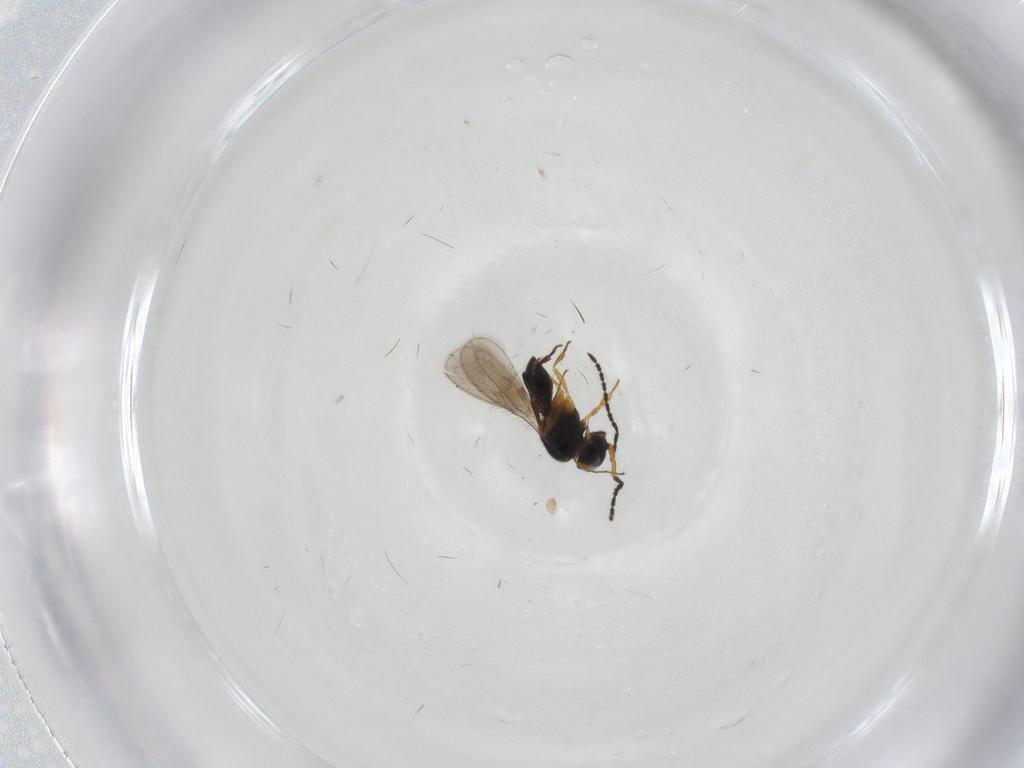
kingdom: Animalia
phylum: Arthropoda
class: Insecta
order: Hymenoptera
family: Scelionidae
